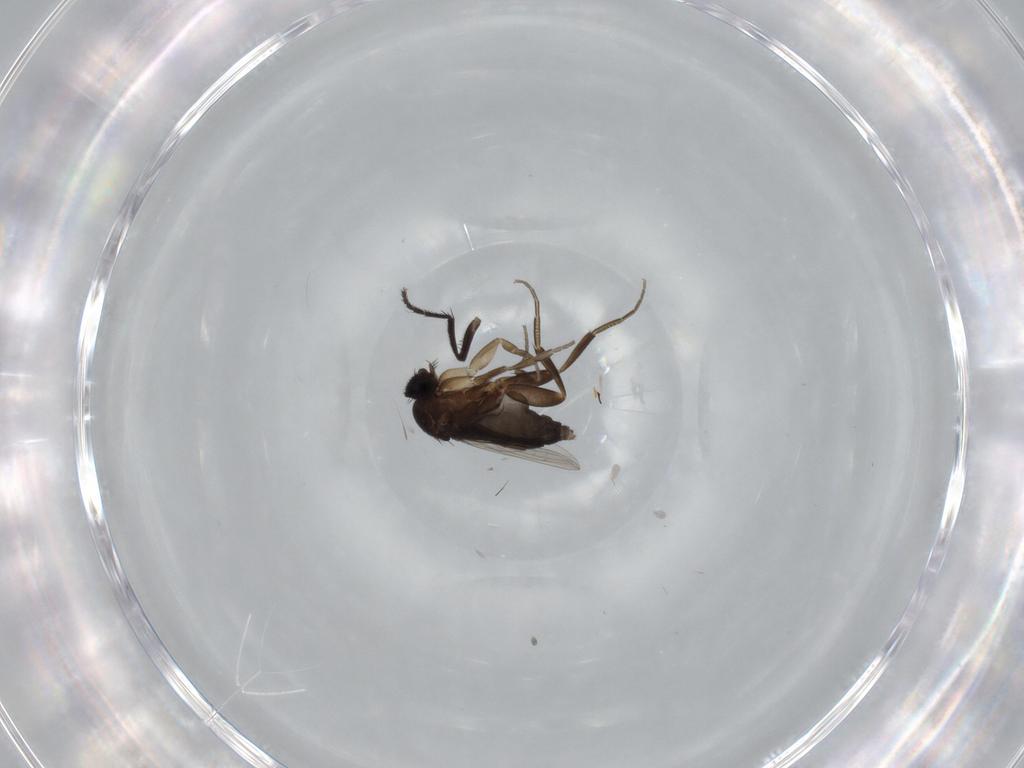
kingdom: Animalia
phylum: Arthropoda
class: Insecta
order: Diptera
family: Phoridae
